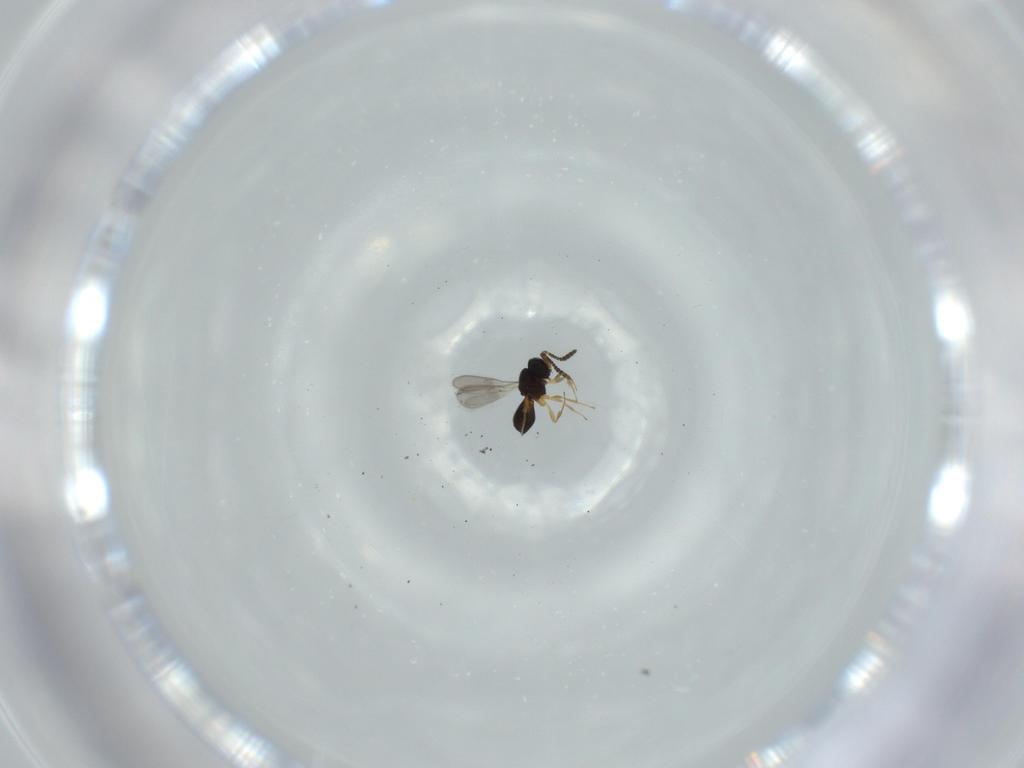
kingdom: Animalia
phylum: Arthropoda
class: Insecta
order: Hymenoptera
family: Scelionidae
